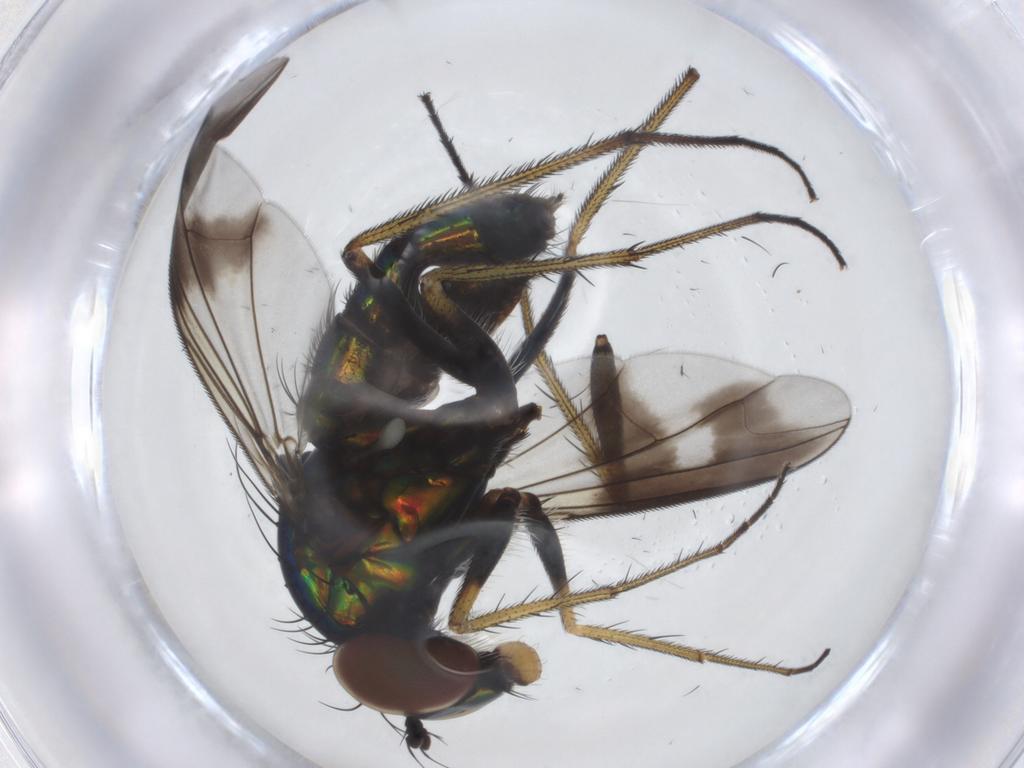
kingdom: Animalia
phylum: Arthropoda
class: Insecta
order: Diptera
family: Dolichopodidae
